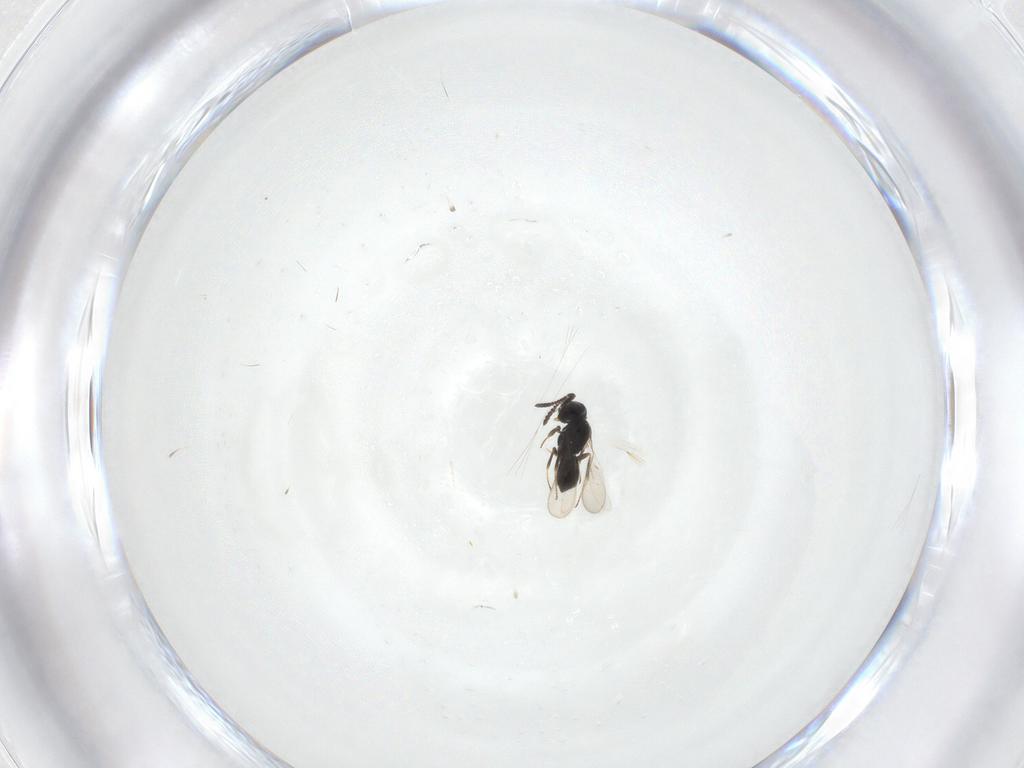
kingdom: Animalia
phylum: Arthropoda
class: Insecta
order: Hymenoptera
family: Scelionidae
